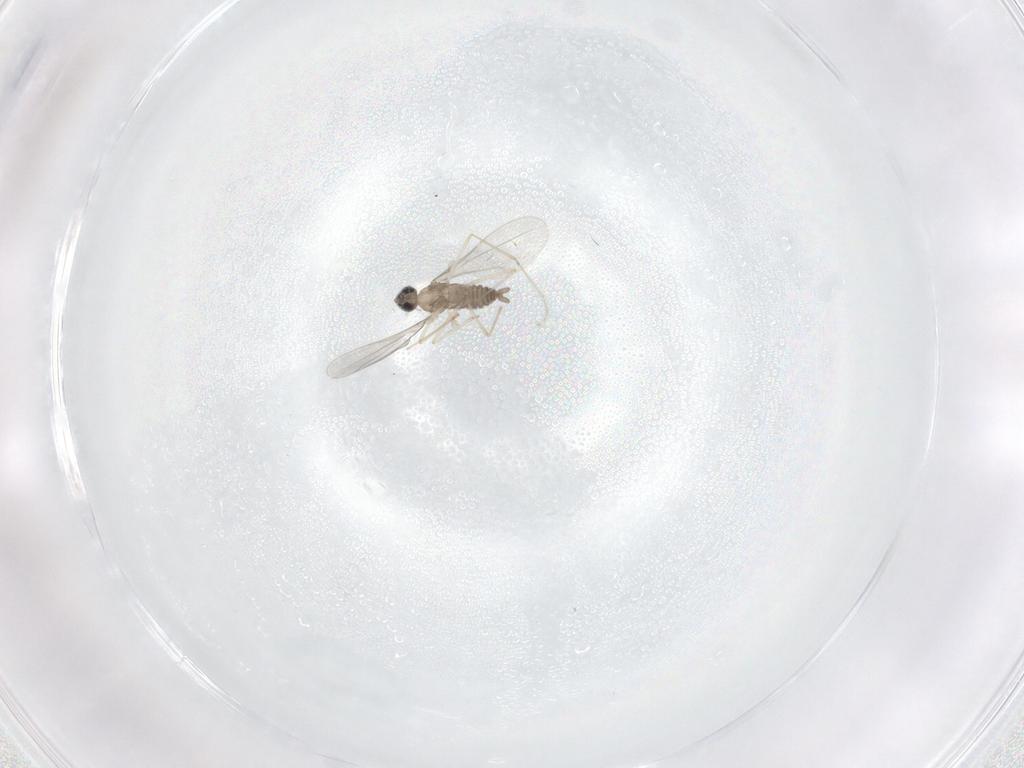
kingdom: Animalia
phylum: Arthropoda
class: Insecta
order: Diptera
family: Cecidomyiidae
